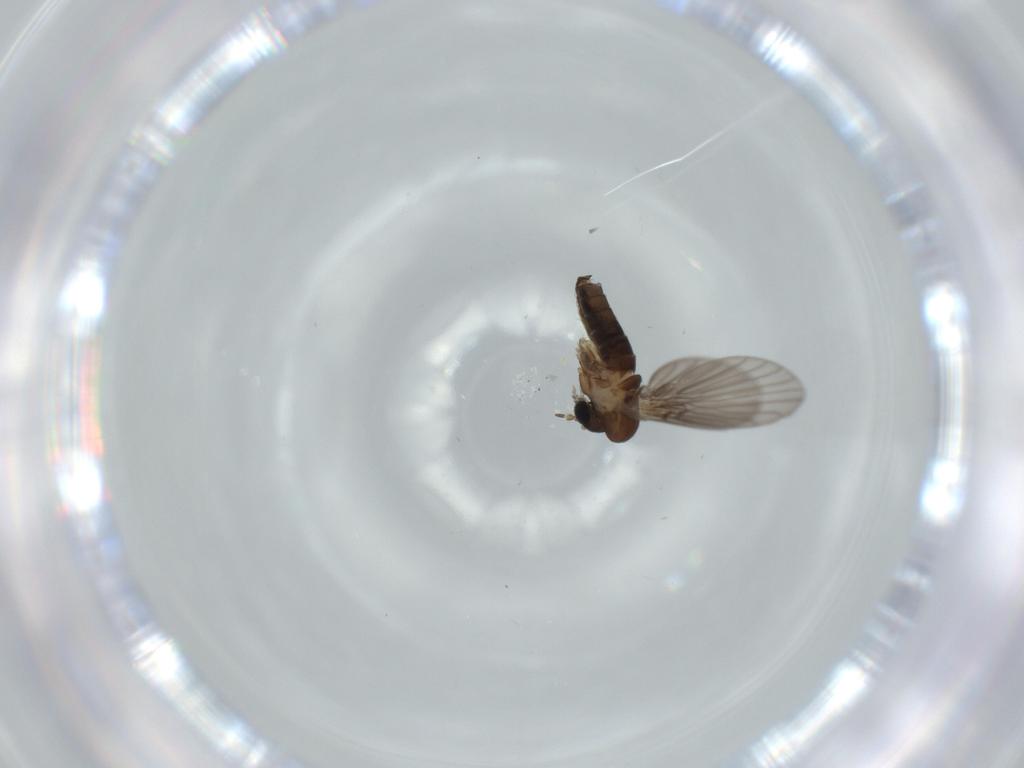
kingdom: Animalia
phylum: Arthropoda
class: Insecta
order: Diptera
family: Psychodidae
